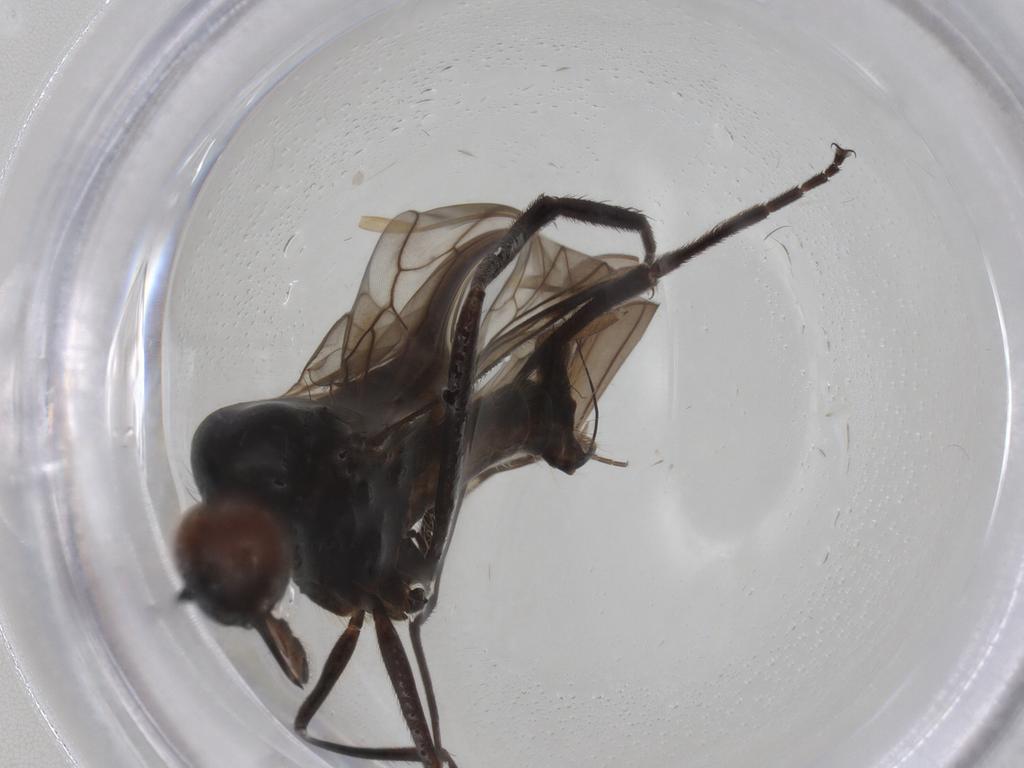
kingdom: Animalia
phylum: Arthropoda
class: Insecta
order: Diptera
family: Empididae
